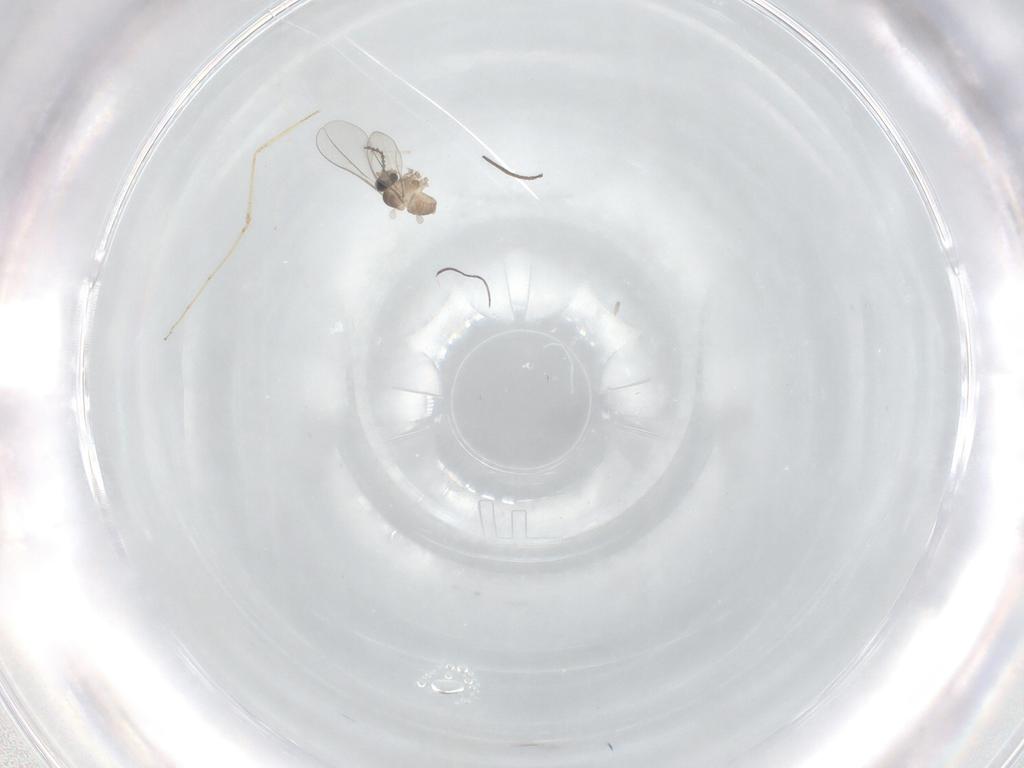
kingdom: Animalia
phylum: Arthropoda
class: Insecta
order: Diptera
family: Cecidomyiidae
